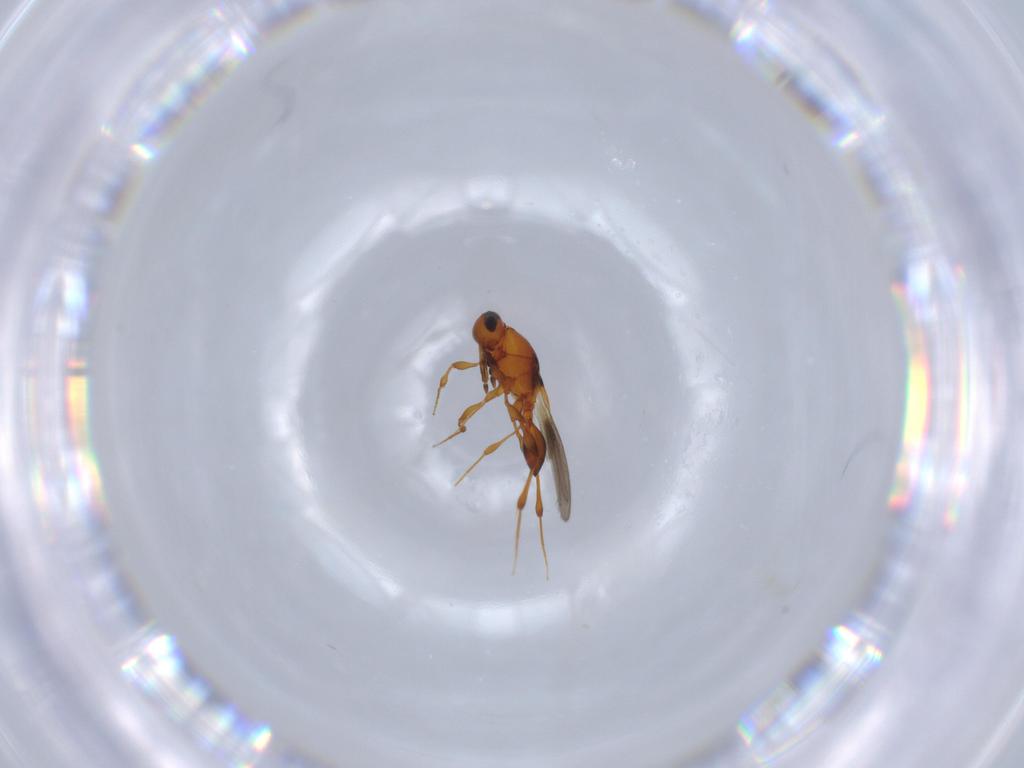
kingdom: Animalia
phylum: Arthropoda
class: Insecta
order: Hymenoptera
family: Platygastridae
